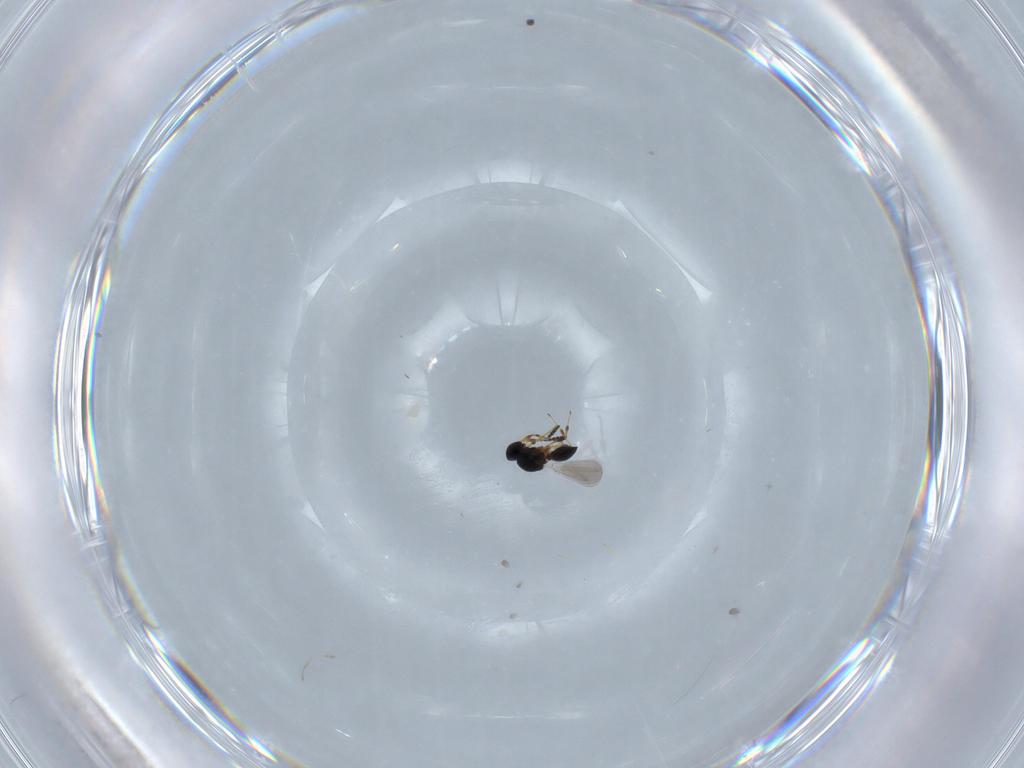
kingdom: Animalia
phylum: Arthropoda
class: Insecta
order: Hymenoptera
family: Platygastridae
